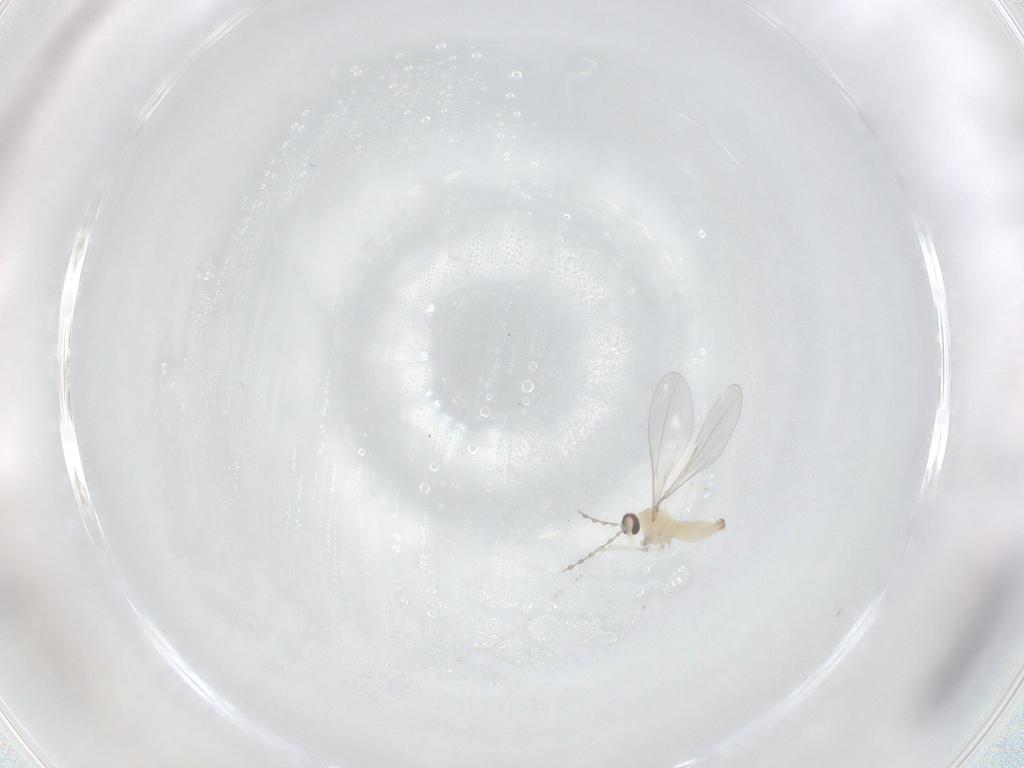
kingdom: Animalia
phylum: Arthropoda
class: Insecta
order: Diptera
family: Cecidomyiidae
